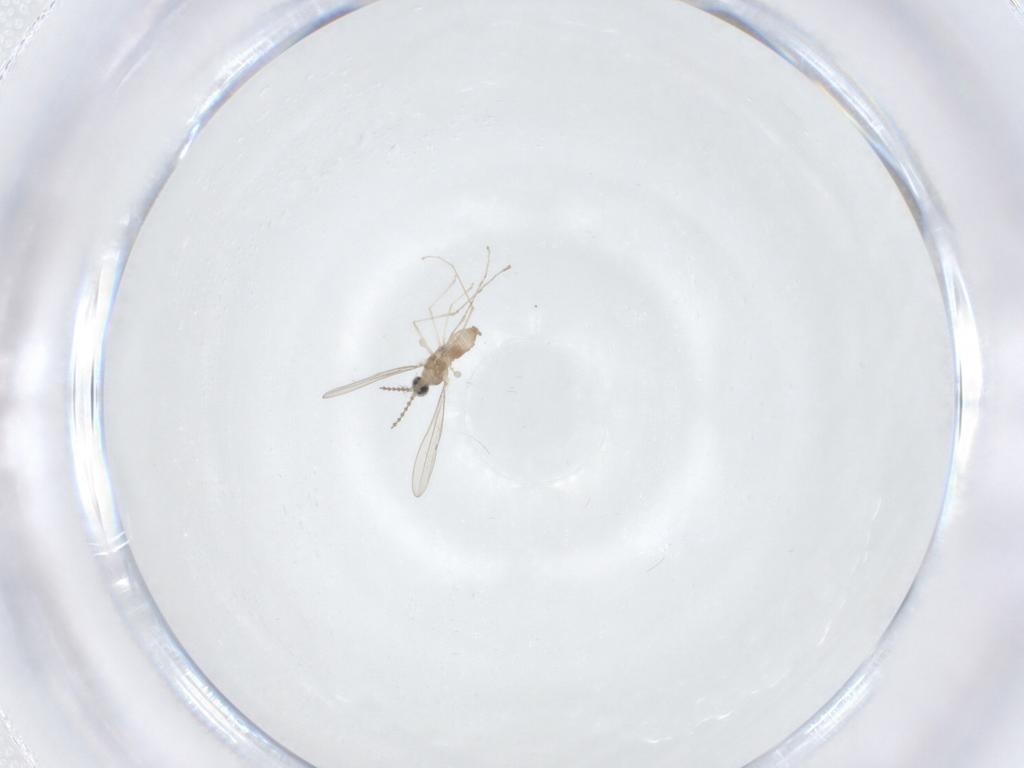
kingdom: Animalia
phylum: Arthropoda
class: Insecta
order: Diptera
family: Cecidomyiidae
